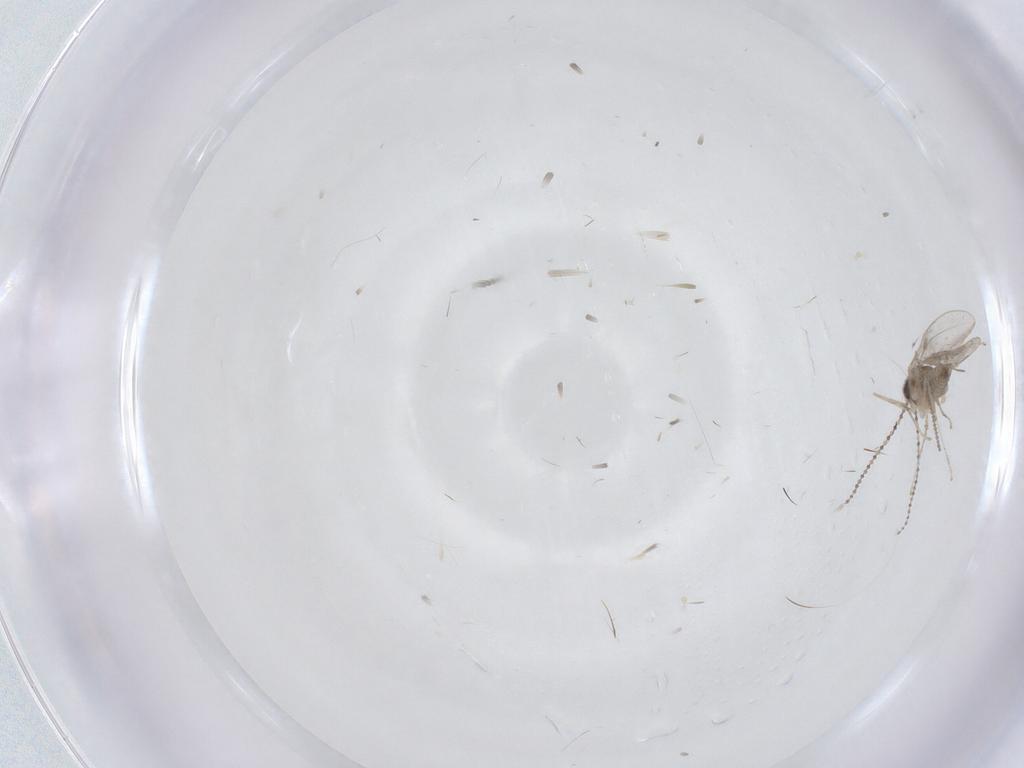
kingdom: Animalia
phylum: Arthropoda
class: Insecta
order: Diptera
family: Cecidomyiidae
